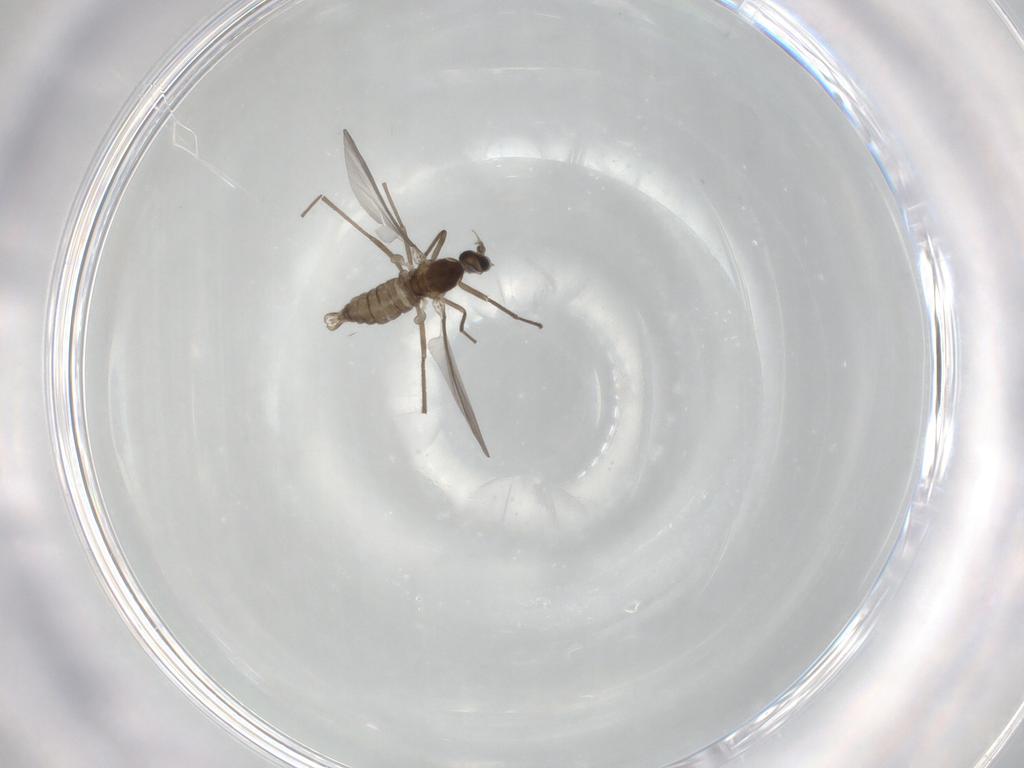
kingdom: Animalia
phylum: Arthropoda
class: Insecta
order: Diptera
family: Cecidomyiidae
